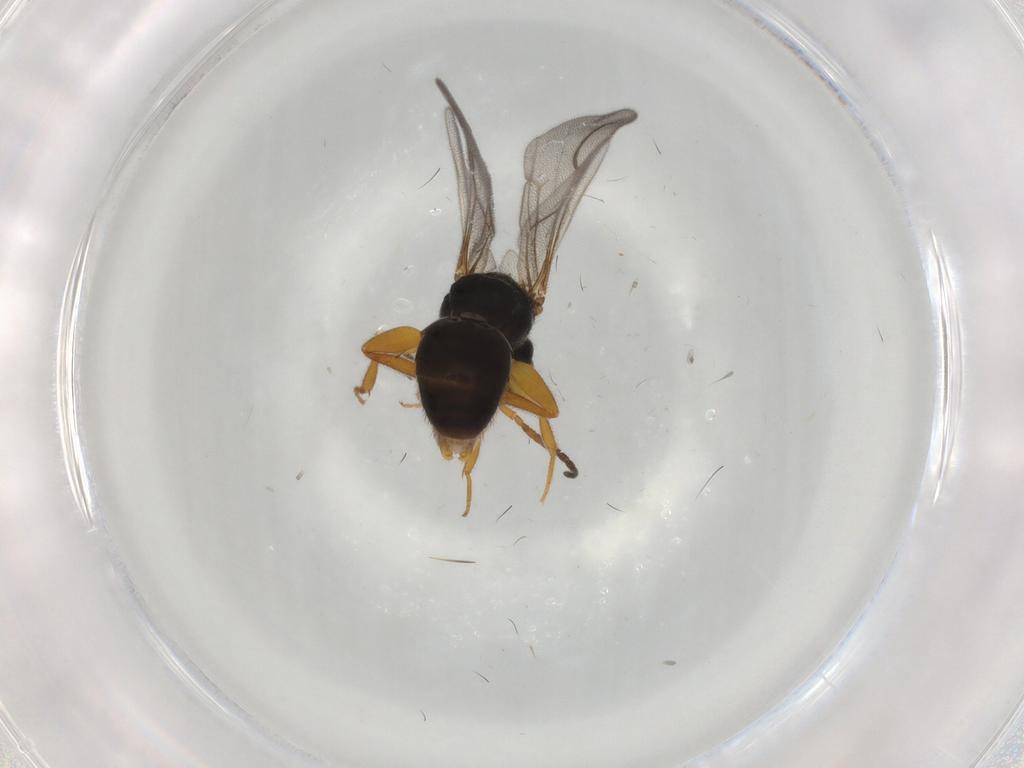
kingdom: Animalia
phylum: Arthropoda
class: Insecta
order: Hymenoptera
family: Bethylidae
